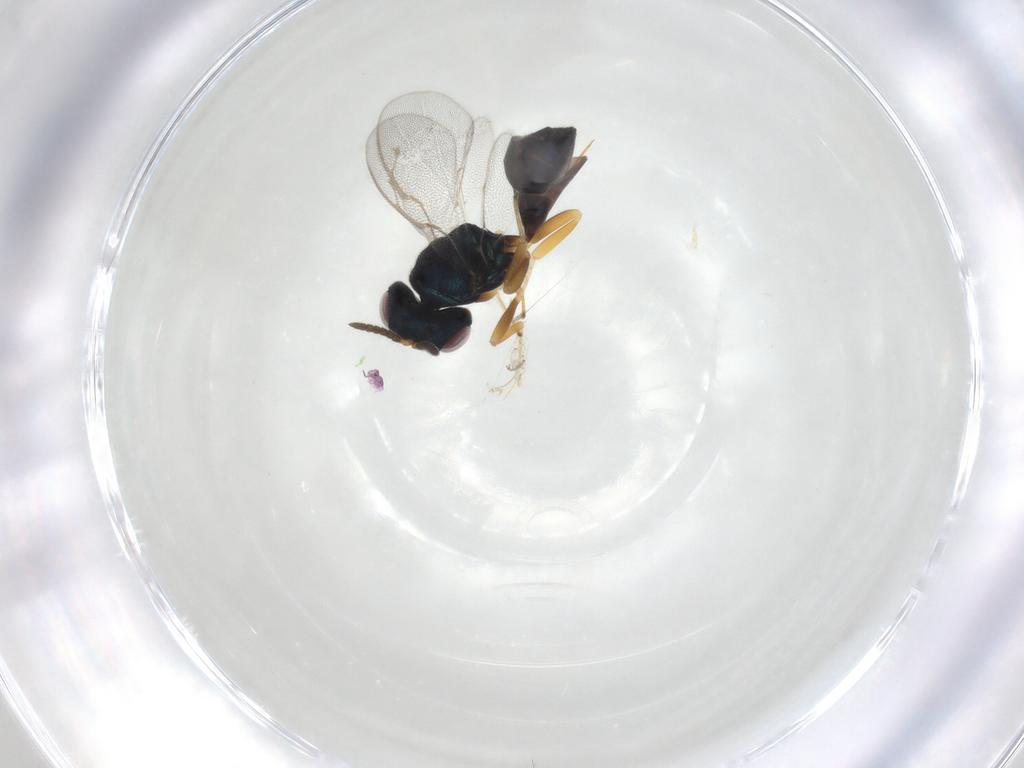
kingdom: Animalia
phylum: Arthropoda
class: Insecta
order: Hymenoptera
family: Pteromalidae
